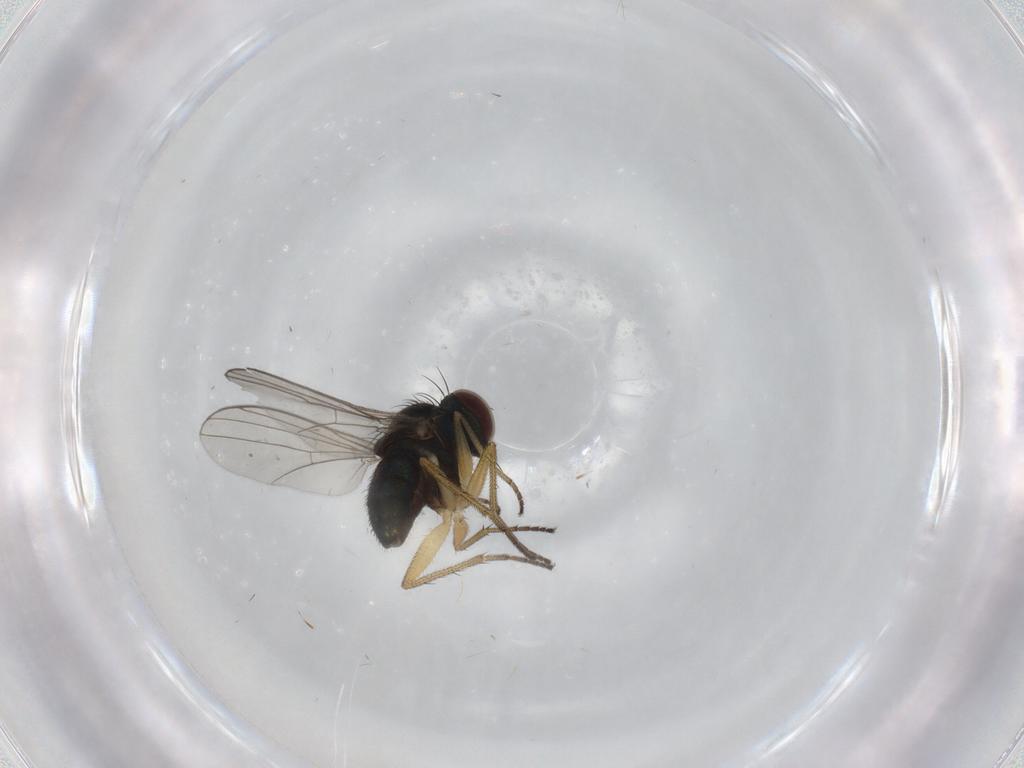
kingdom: Animalia
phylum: Arthropoda
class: Insecta
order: Diptera
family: Dolichopodidae
